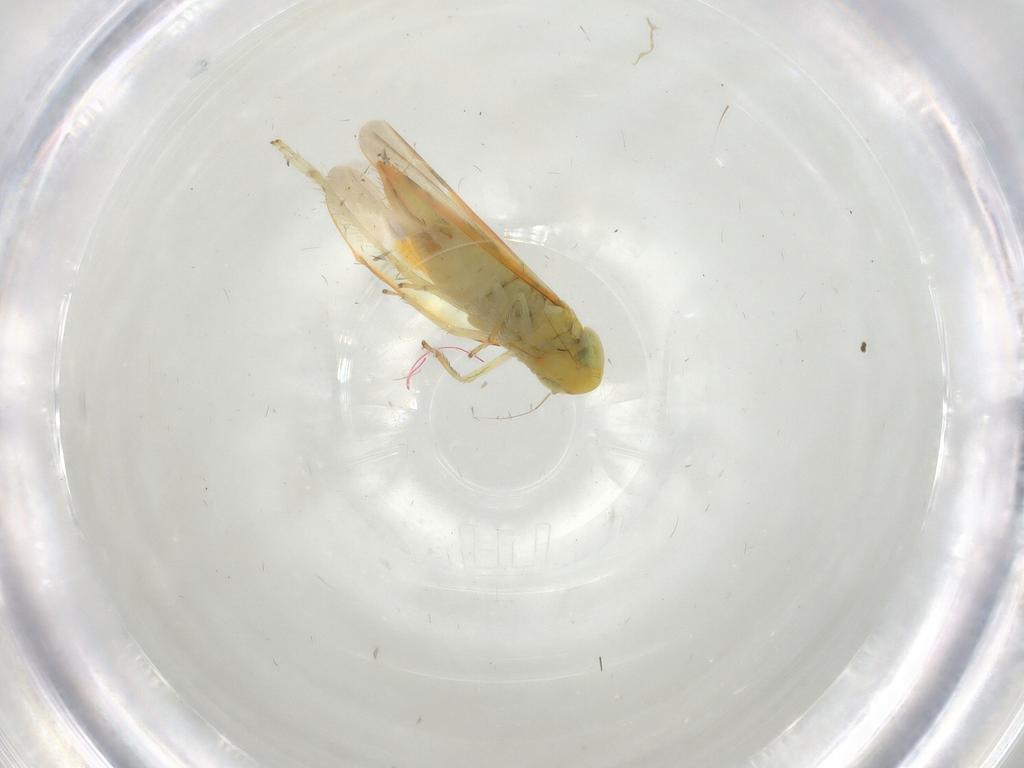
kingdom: Animalia
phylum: Arthropoda
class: Insecta
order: Hemiptera
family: Cicadellidae
